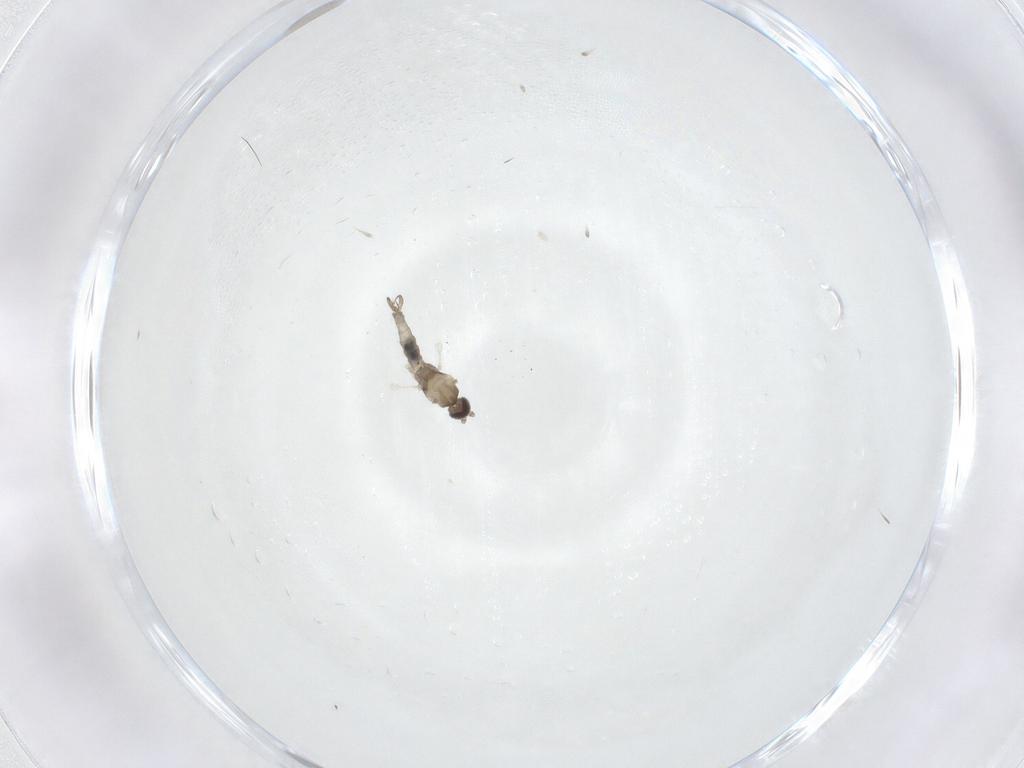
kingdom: Animalia
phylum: Arthropoda
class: Insecta
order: Diptera
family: Cecidomyiidae
